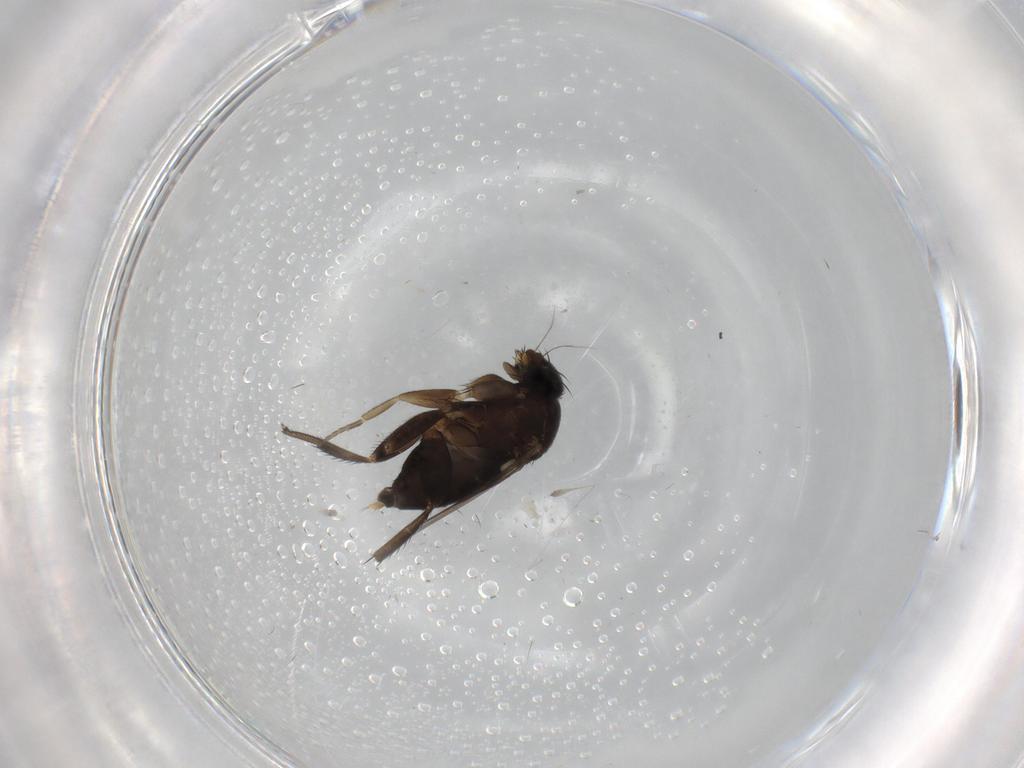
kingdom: Animalia
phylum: Arthropoda
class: Insecta
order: Diptera
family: Phoridae
